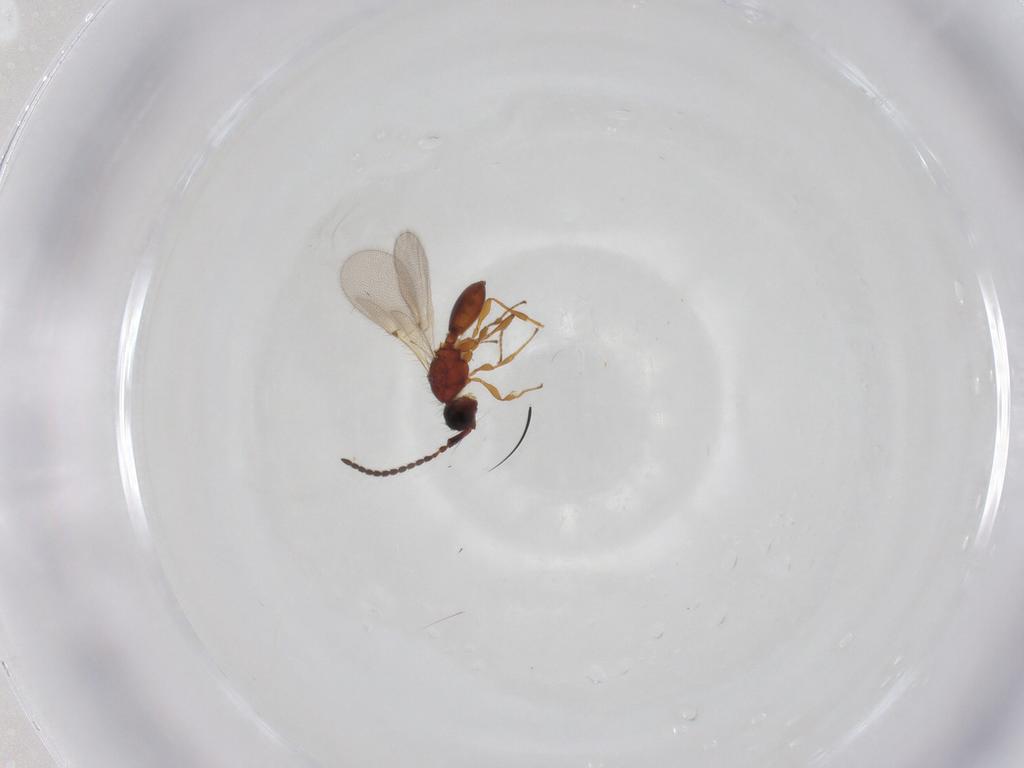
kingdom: Animalia
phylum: Arthropoda
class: Insecta
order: Hymenoptera
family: Diapriidae
